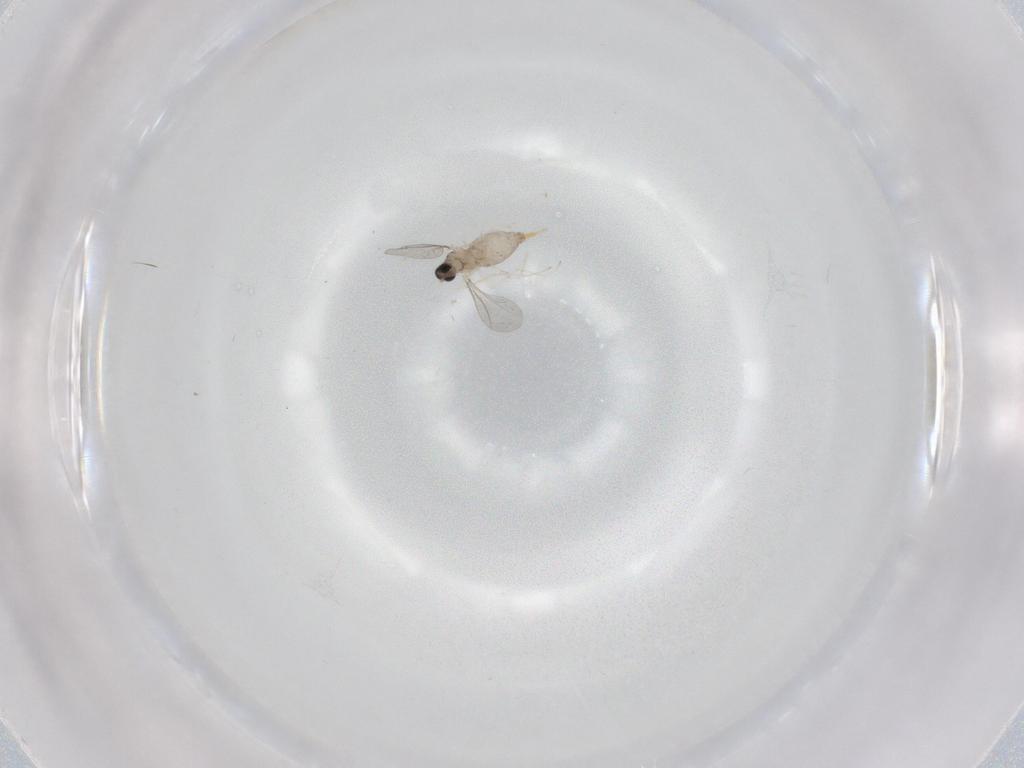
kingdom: Animalia
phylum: Arthropoda
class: Insecta
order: Diptera
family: Cecidomyiidae
